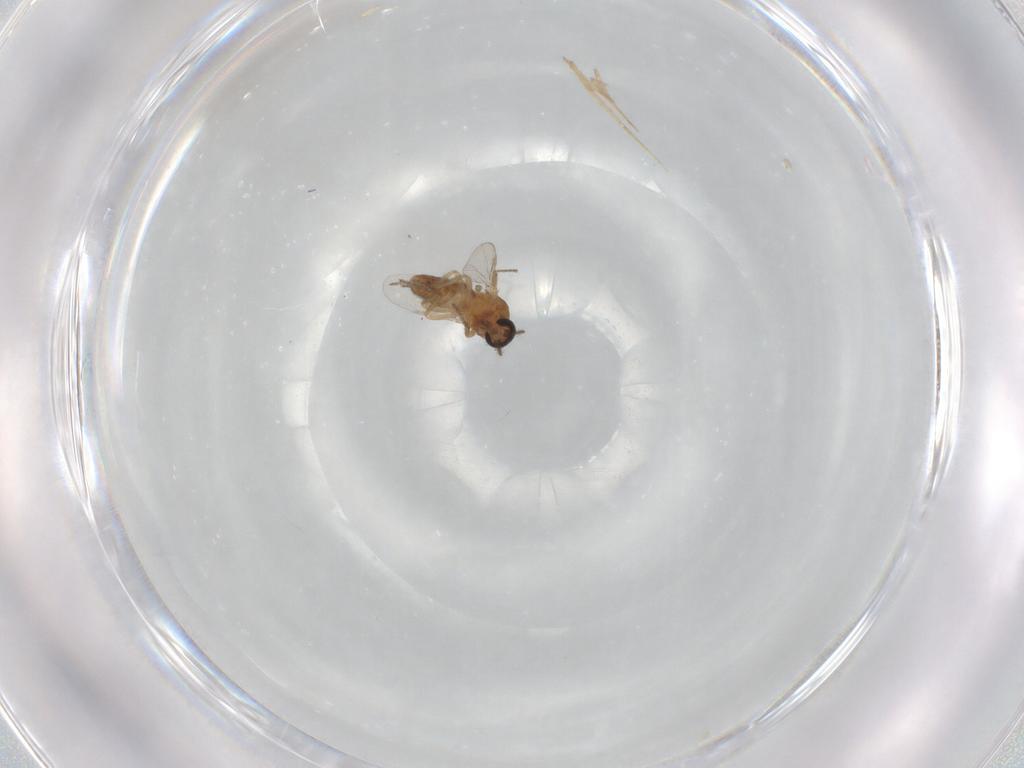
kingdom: Animalia
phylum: Arthropoda
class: Insecta
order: Diptera
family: Ceratopogonidae
